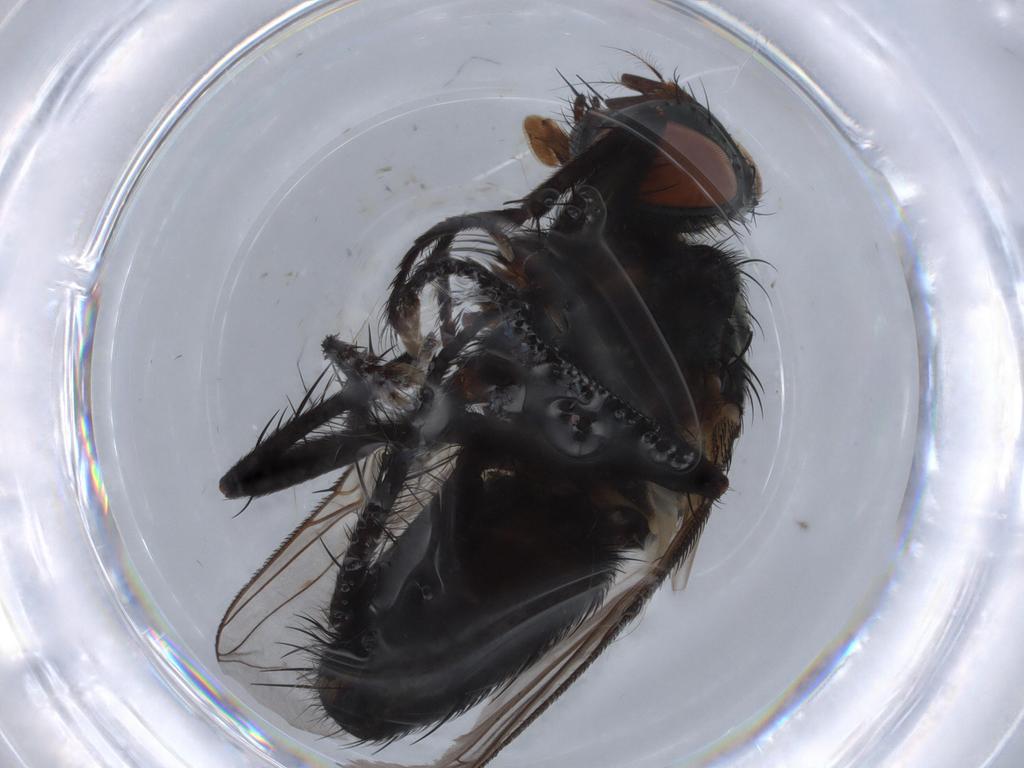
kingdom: Animalia
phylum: Arthropoda
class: Insecta
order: Diptera
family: Sarcophagidae
